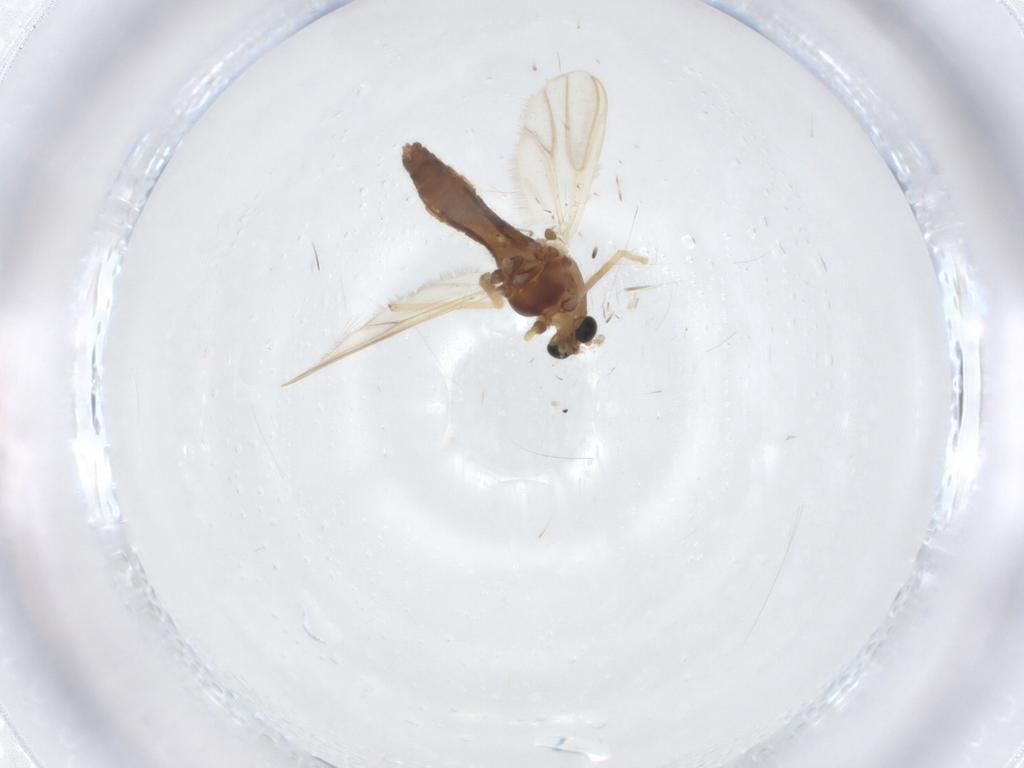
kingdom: Animalia
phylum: Arthropoda
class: Insecta
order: Diptera
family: Chironomidae
